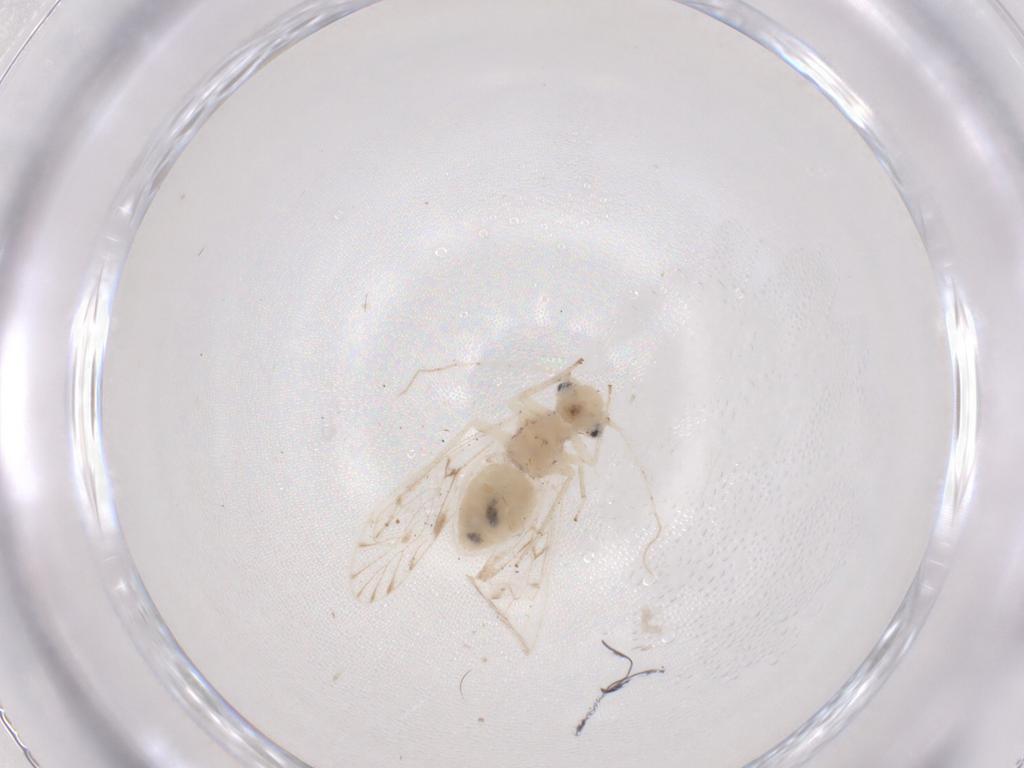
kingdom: Animalia
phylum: Arthropoda
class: Insecta
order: Psocodea
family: Trichopsocidae
